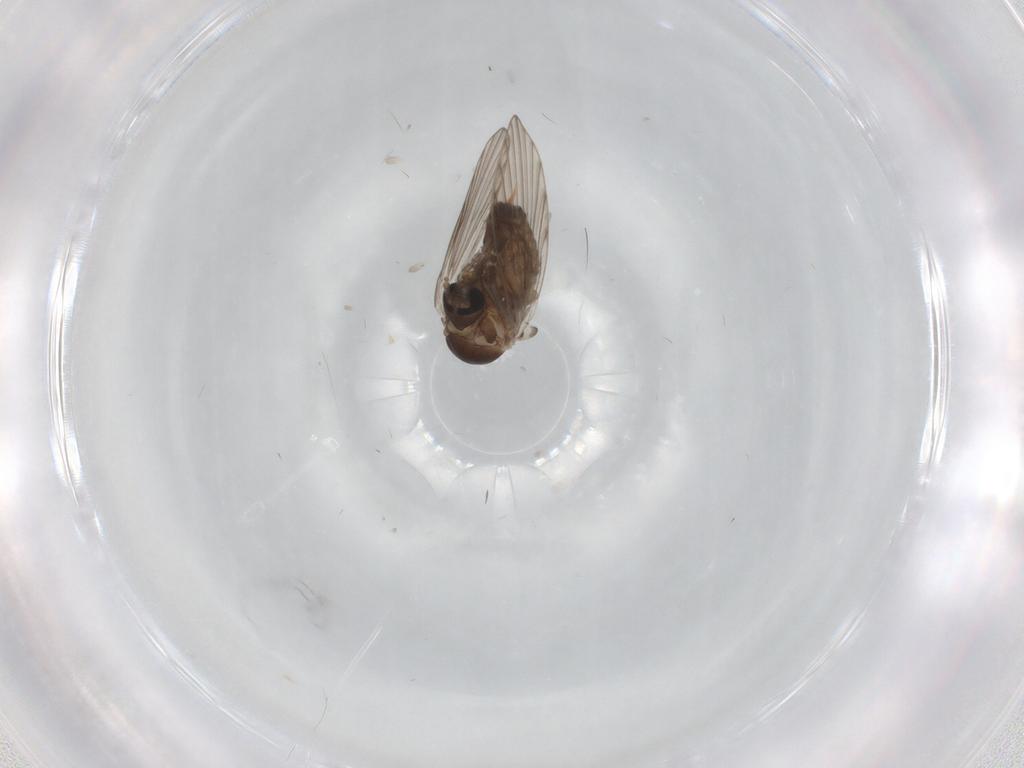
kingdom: Animalia
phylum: Arthropoda
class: Insecta
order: Diptera
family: Psychodidae
